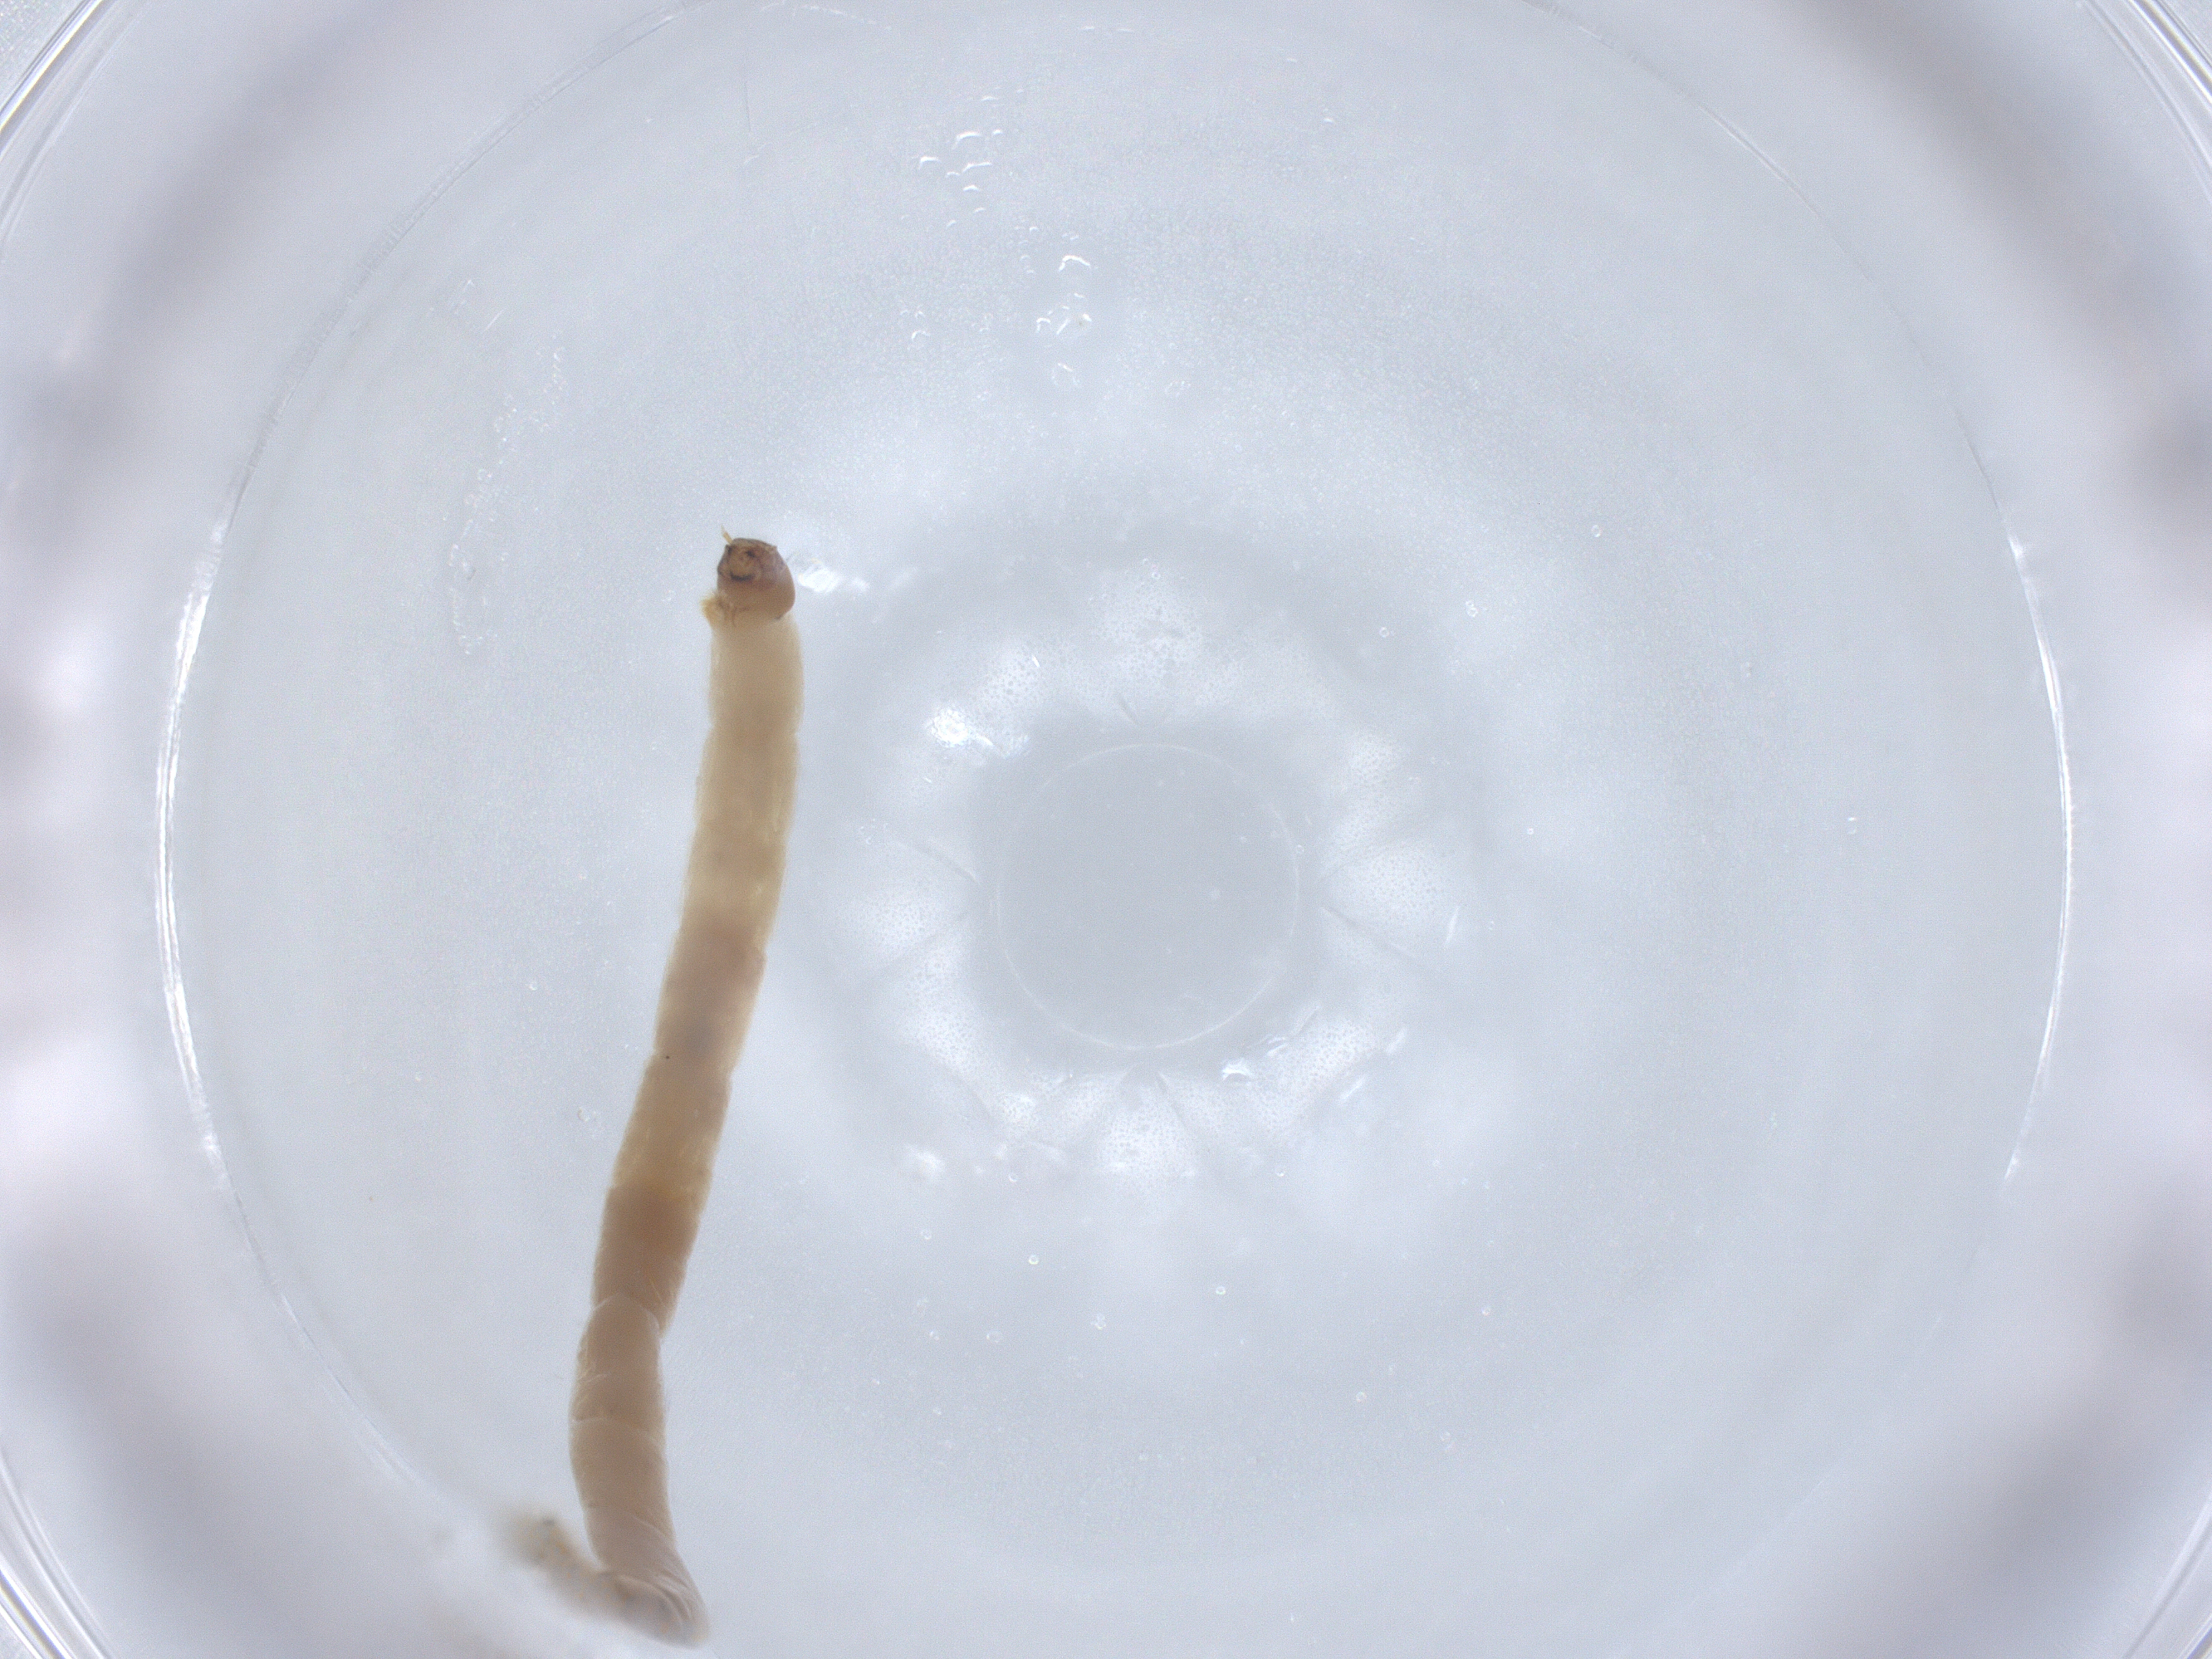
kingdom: Animalia
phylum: Arthropoda
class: Insecta
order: Diptera
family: Chironomidae
